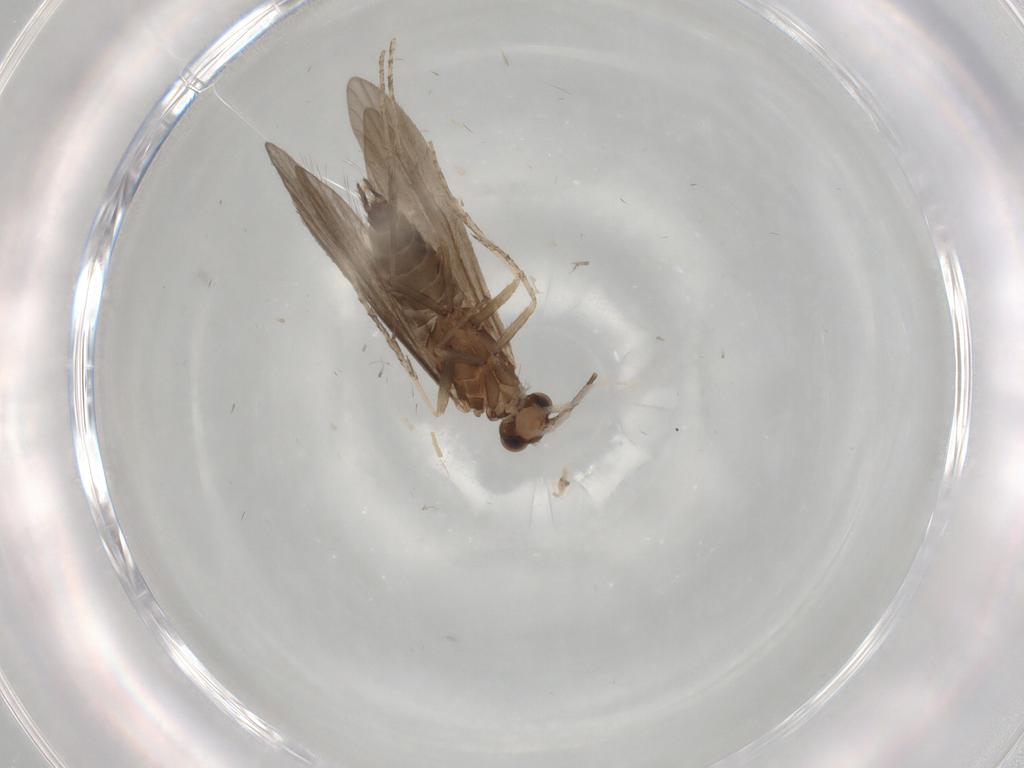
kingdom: Animalia
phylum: Arthropoda
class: Insecta
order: Trichoptera
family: Hydroptilidae
